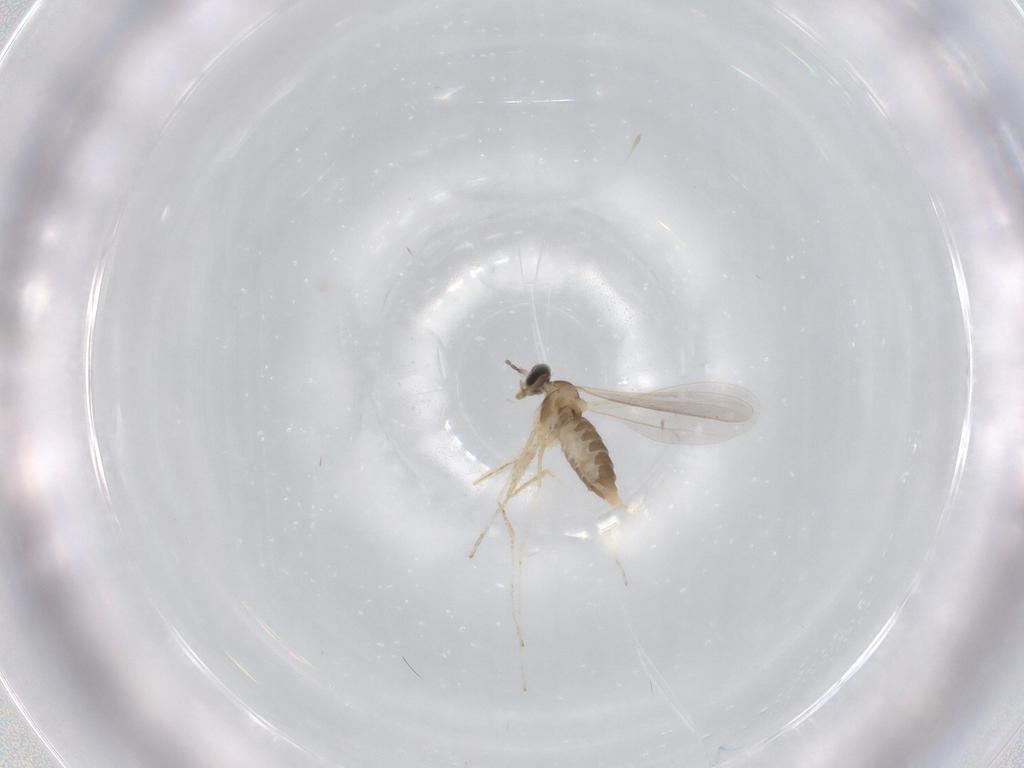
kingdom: Animalia
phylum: Arthropoda
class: Insecta
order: Diptera
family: Cecidomyiidae
